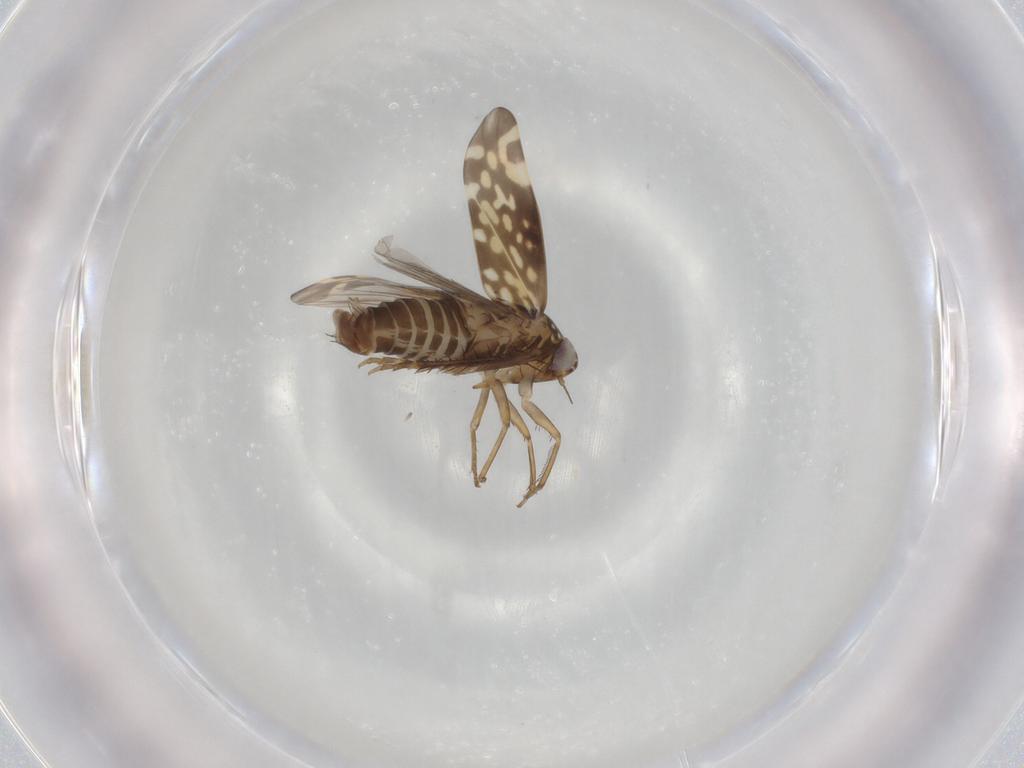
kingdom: Animalia
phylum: Arthropoda
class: Insecta
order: Hemiptera
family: Cicadellidae
